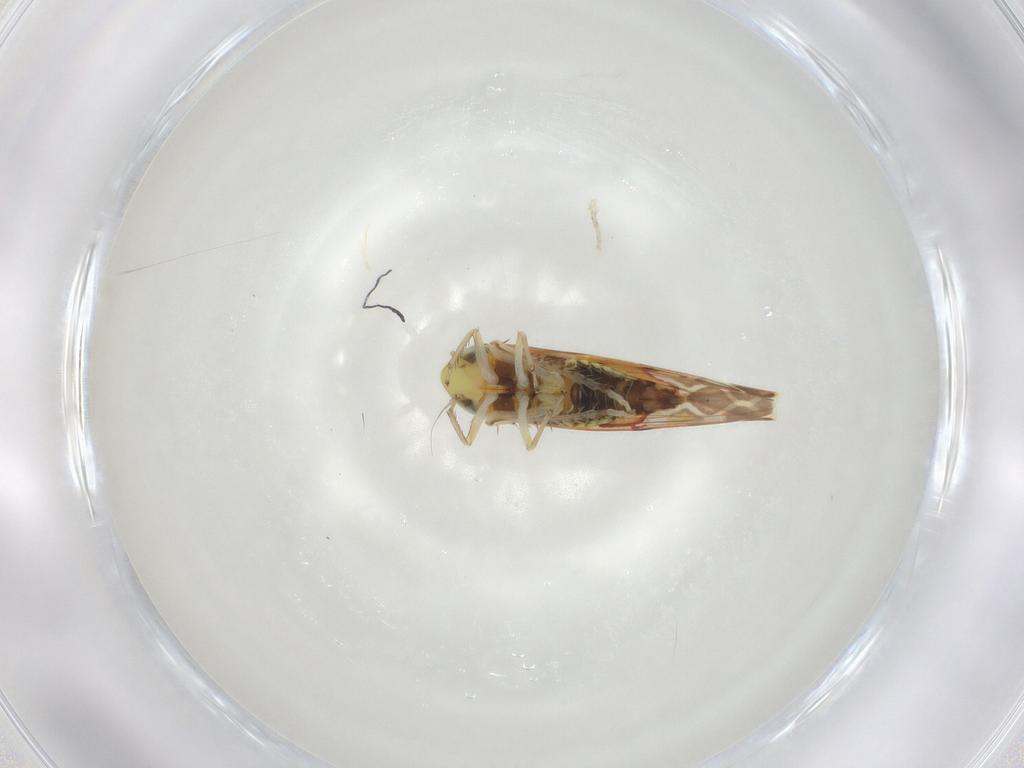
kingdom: Animalia
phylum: Arthropoda
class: Insecta
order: Hemiptera
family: Cicadellidae
